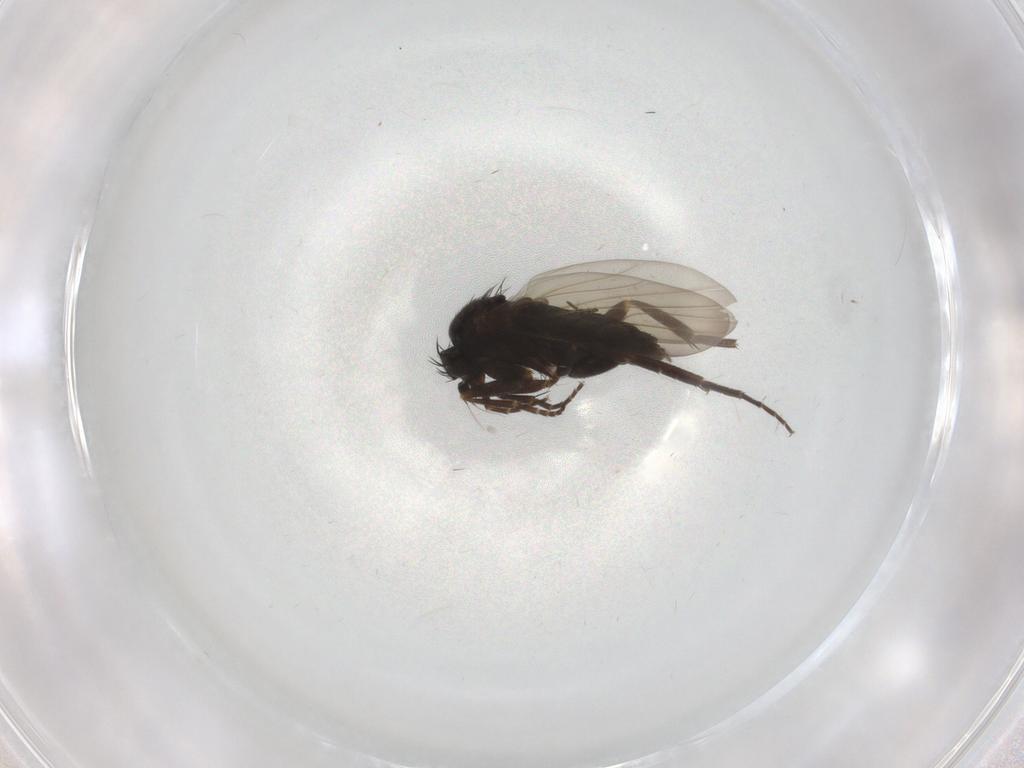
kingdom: Animalia
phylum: Arthropoda
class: Insecta
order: Diptera
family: Phoridae
